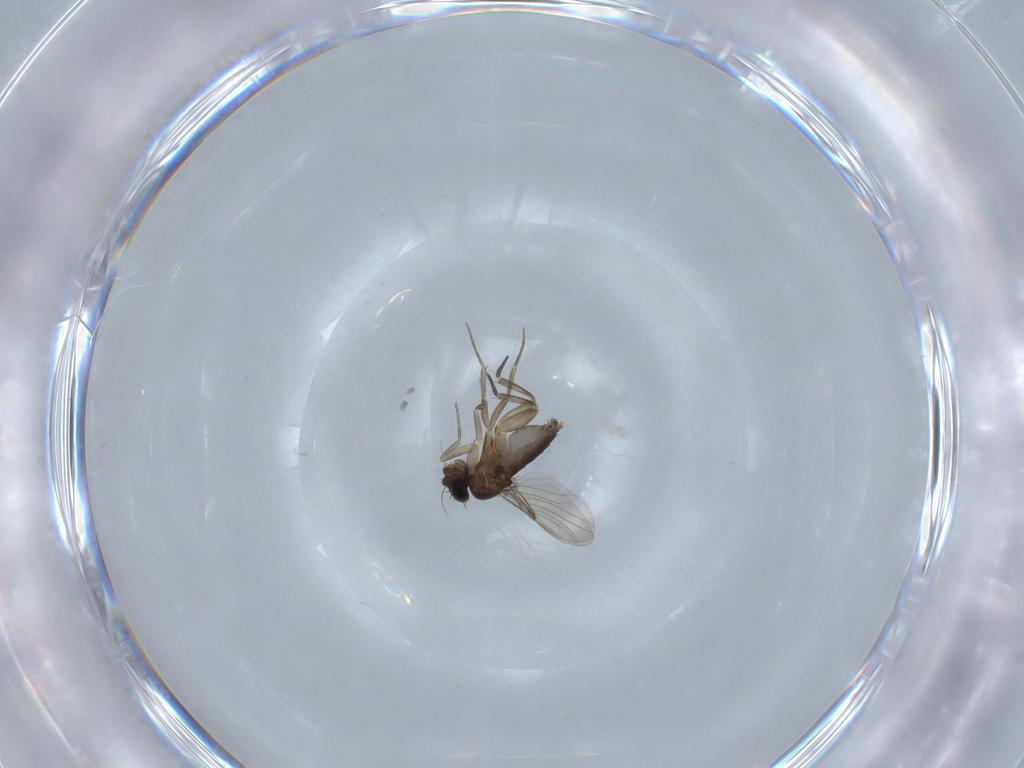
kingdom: Animalia
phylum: Arthropoda
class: Insecta
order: Diptera
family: Phoridae
